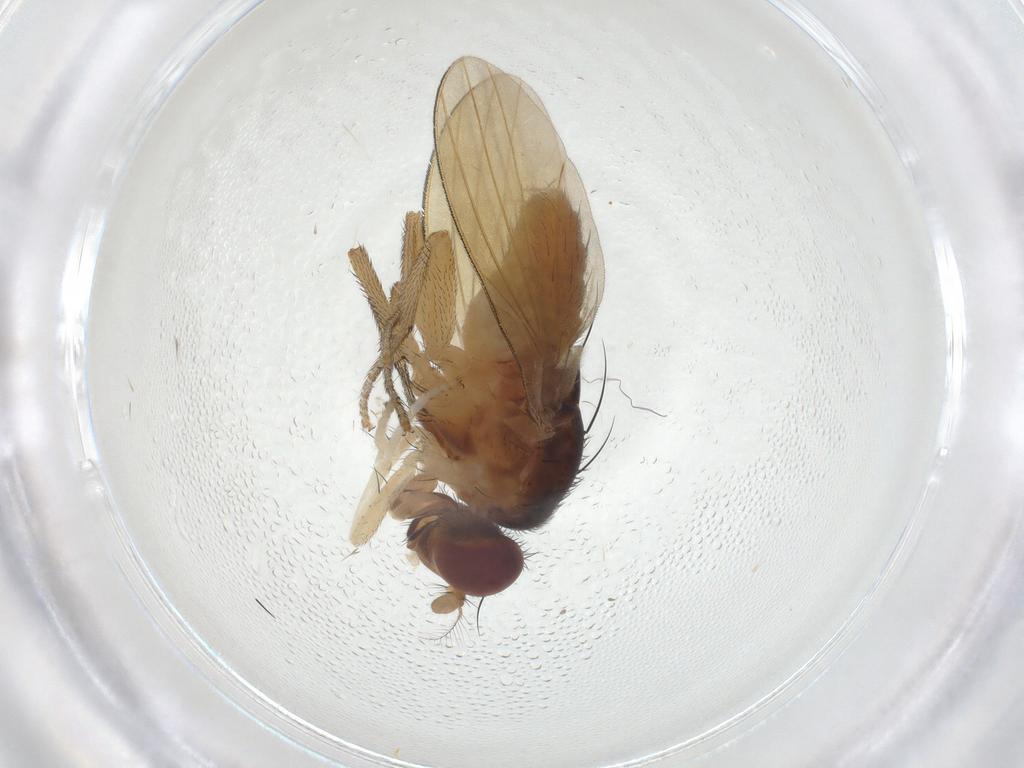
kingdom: Animalia
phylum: Arthropoda
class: Insecta
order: Diptera
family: Lauxaniidae
